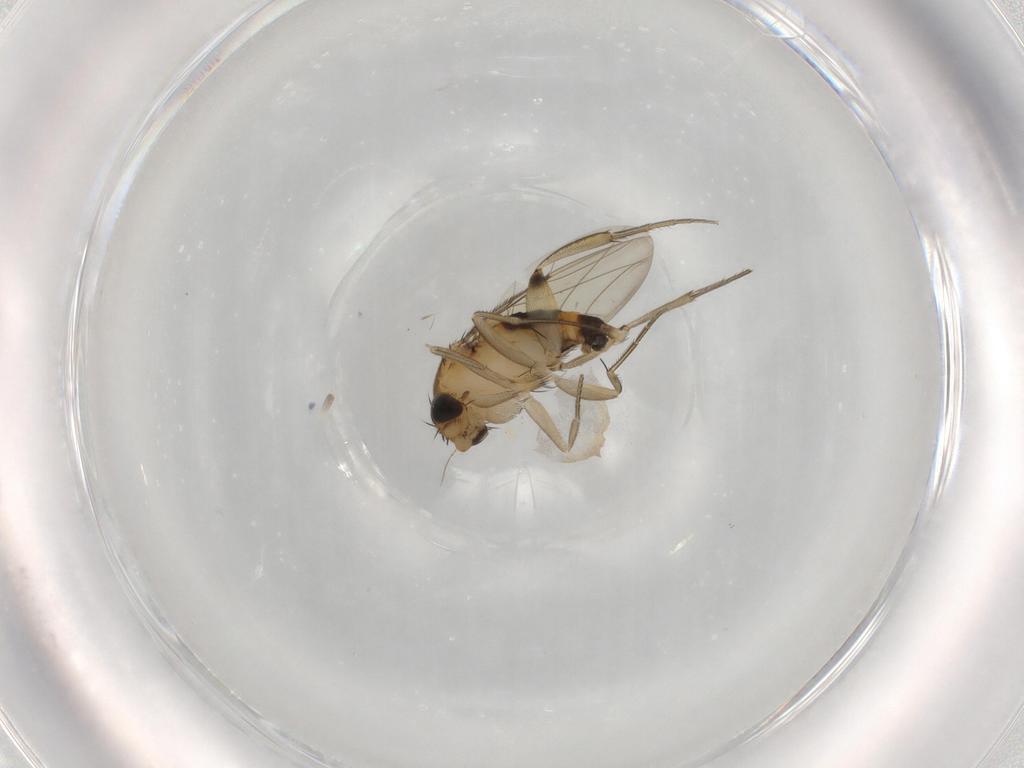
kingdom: Animalia
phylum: Arthropoda
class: Insecta
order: Diptera
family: Phoridae
